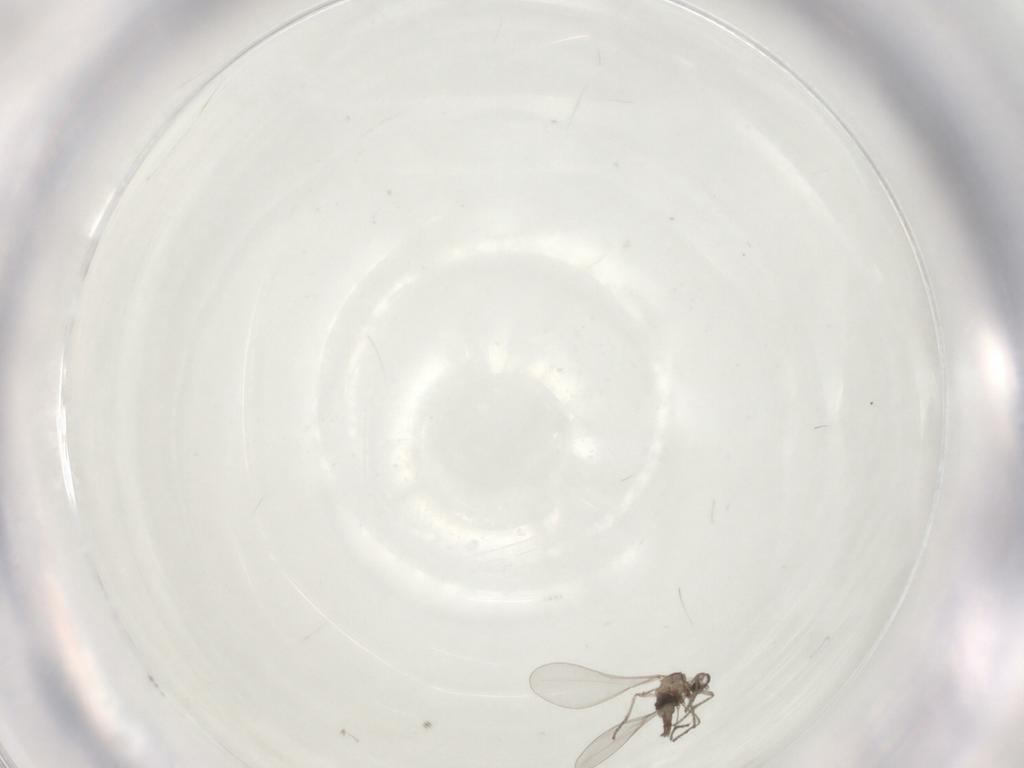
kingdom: Animalia
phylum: Arthropoda
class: Insecta
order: Diptera
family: Cecidomyiidae
